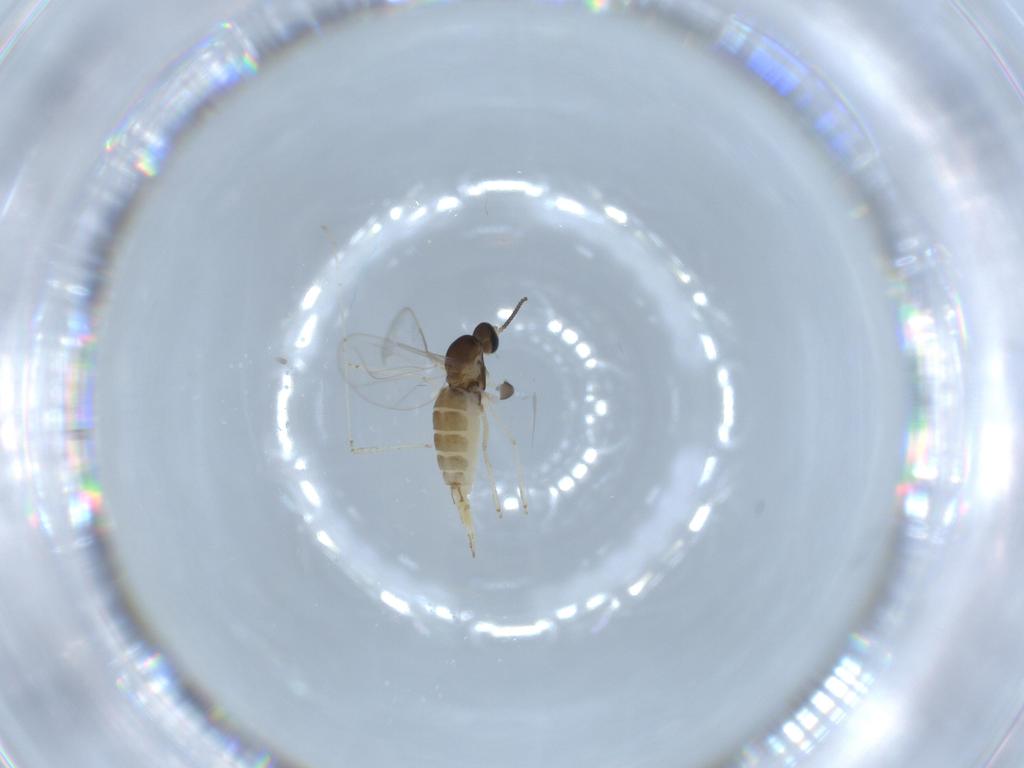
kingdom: Animalia
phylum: Arthropoda
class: Insecta
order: Diptera
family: Cecidomyiidae
